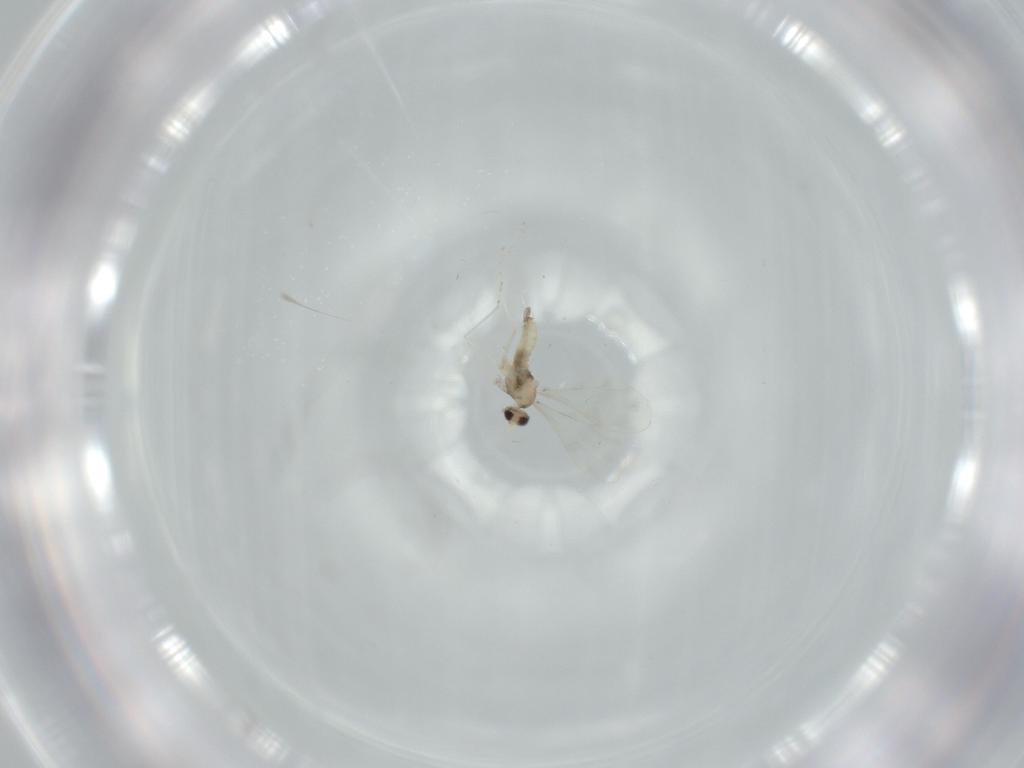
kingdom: Animalia
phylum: Arthropoda
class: Insecta
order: Diptera
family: Cecidomyiidae
